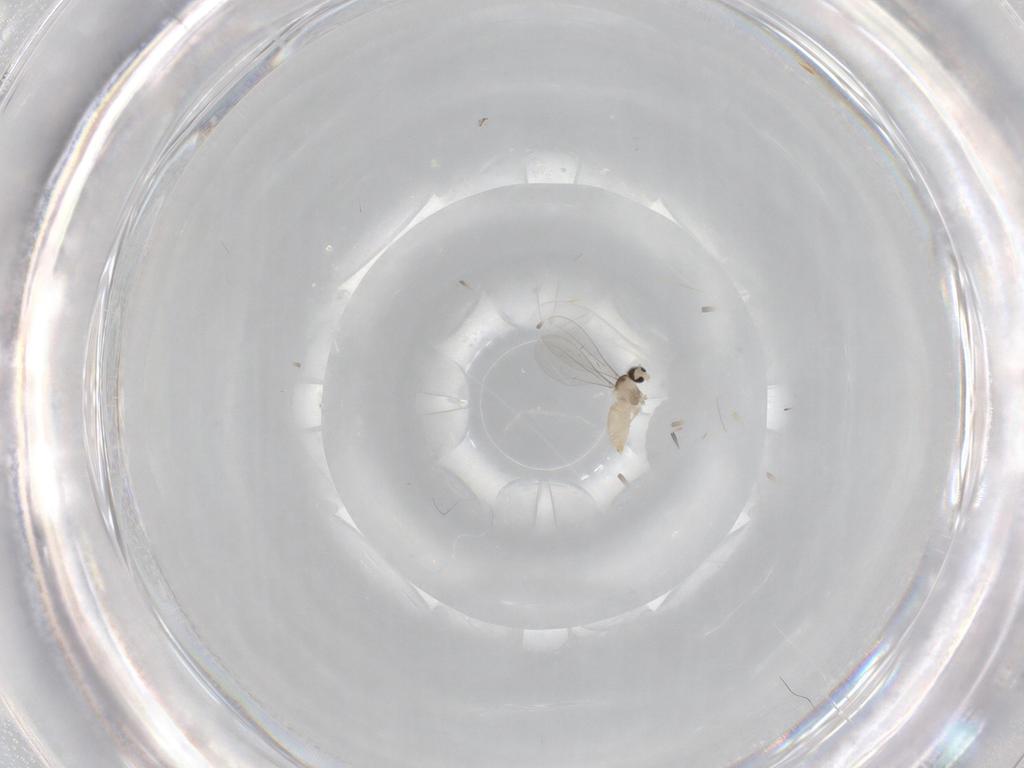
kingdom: Animalia
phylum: Arthropoda
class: Insecta
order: Diptera
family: Cecidomyiidae
